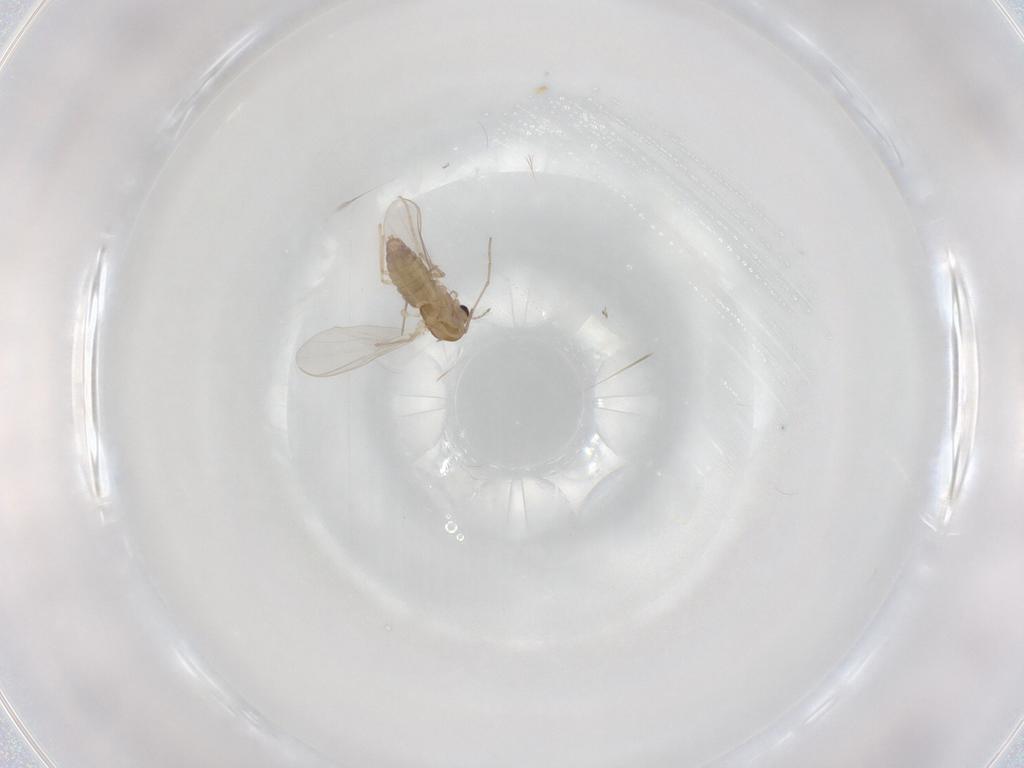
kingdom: Animalia
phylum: Arthropoda
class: Insecta
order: Diptera
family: Chironomidae
